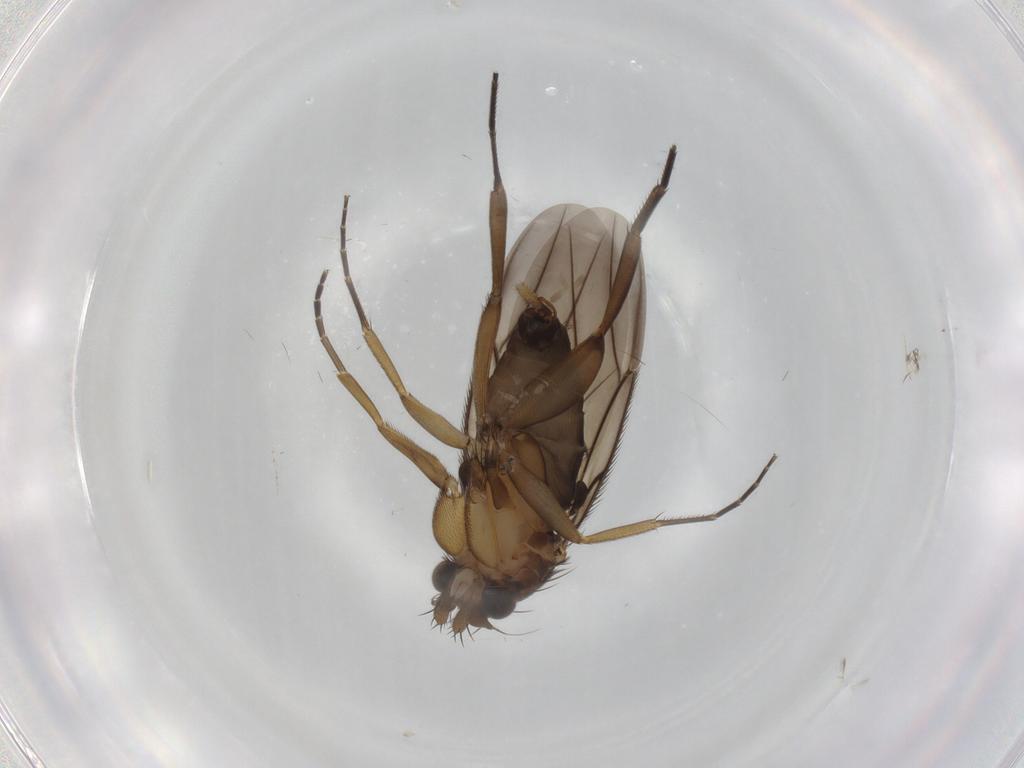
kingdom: Animalia
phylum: Arthropoda
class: Insecta
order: Diptera
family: Phoridae
